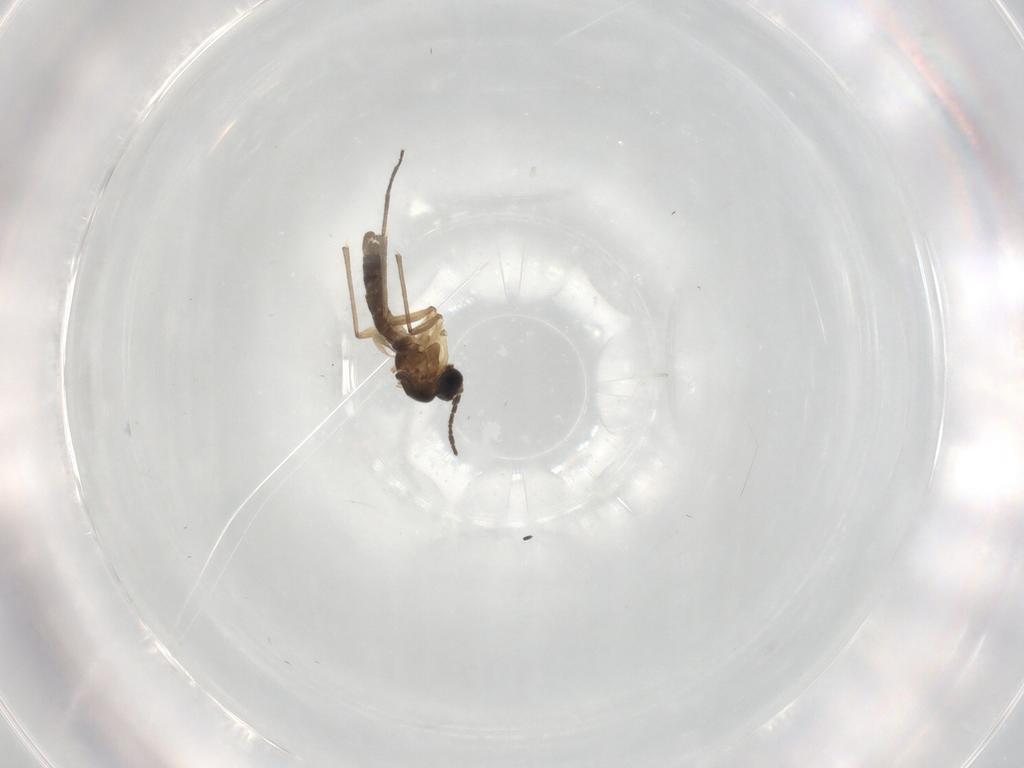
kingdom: Animalia
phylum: Arthropoda
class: Insecta
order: Diptera
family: Sciaridae
